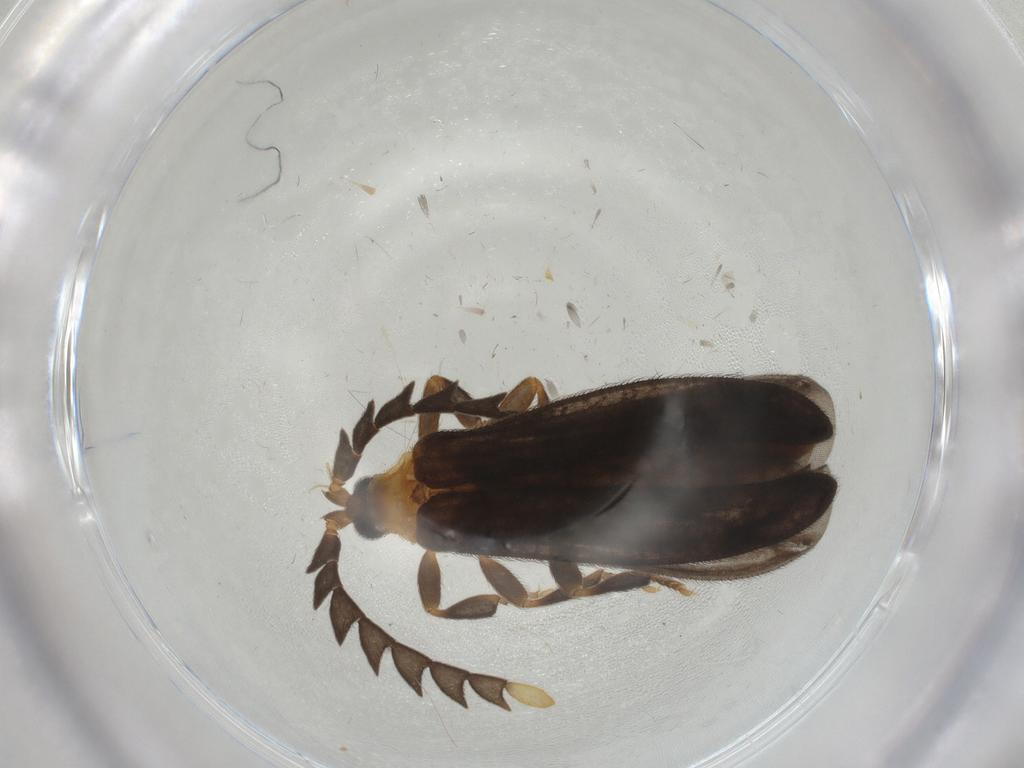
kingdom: Animalia
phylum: Arthropoda
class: Insecta
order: Coleoptera
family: Lycidae
